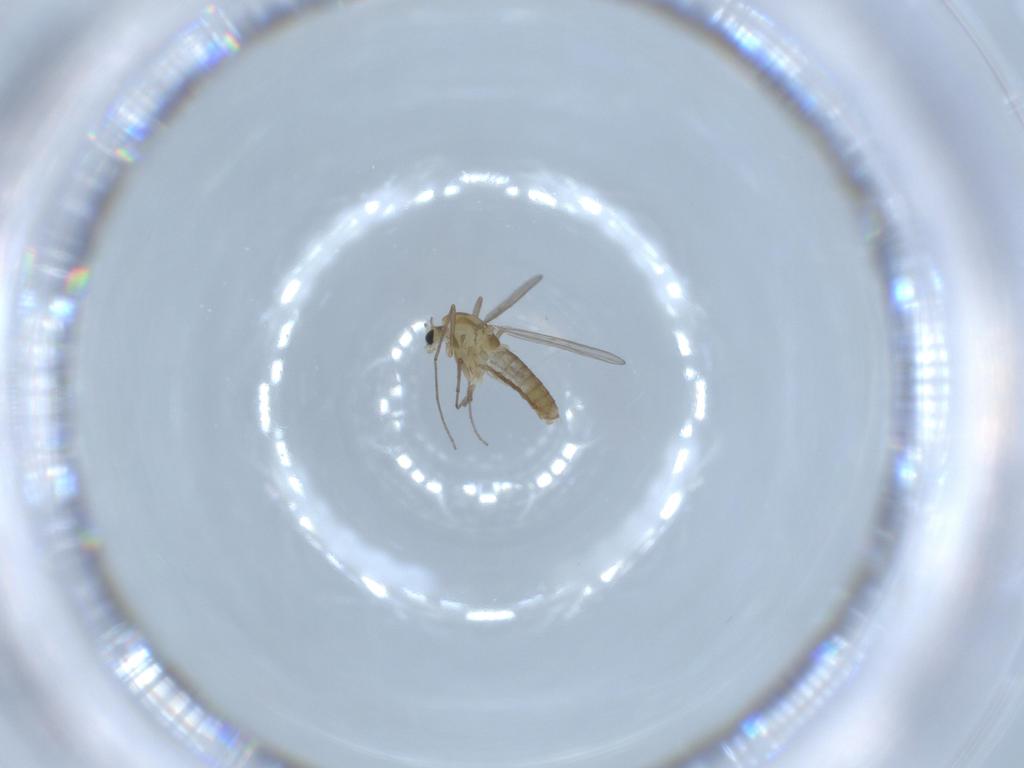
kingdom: Animalia
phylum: Arthropoda
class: Insecta
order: Diptera
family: Chironomidae
